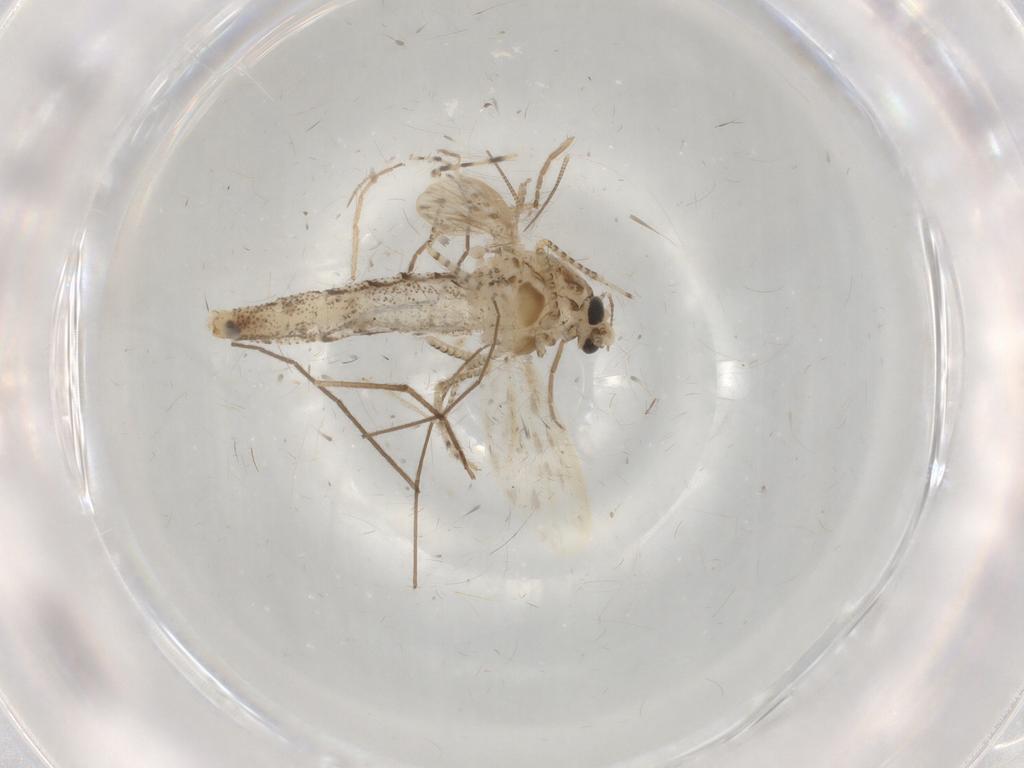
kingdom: Animalia
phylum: Arthropoda
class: Insecta
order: Diptera
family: Chaoboridae
